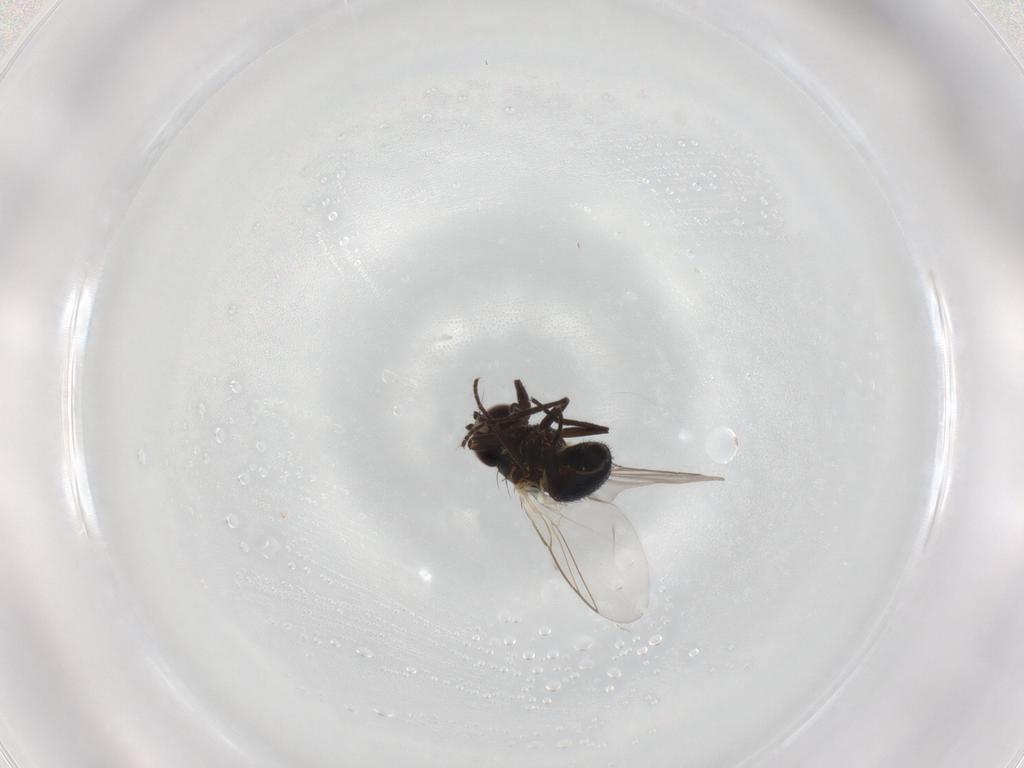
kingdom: Animalia
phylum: Arthropoda
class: Insecta
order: Diptera
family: Agromyzidae
